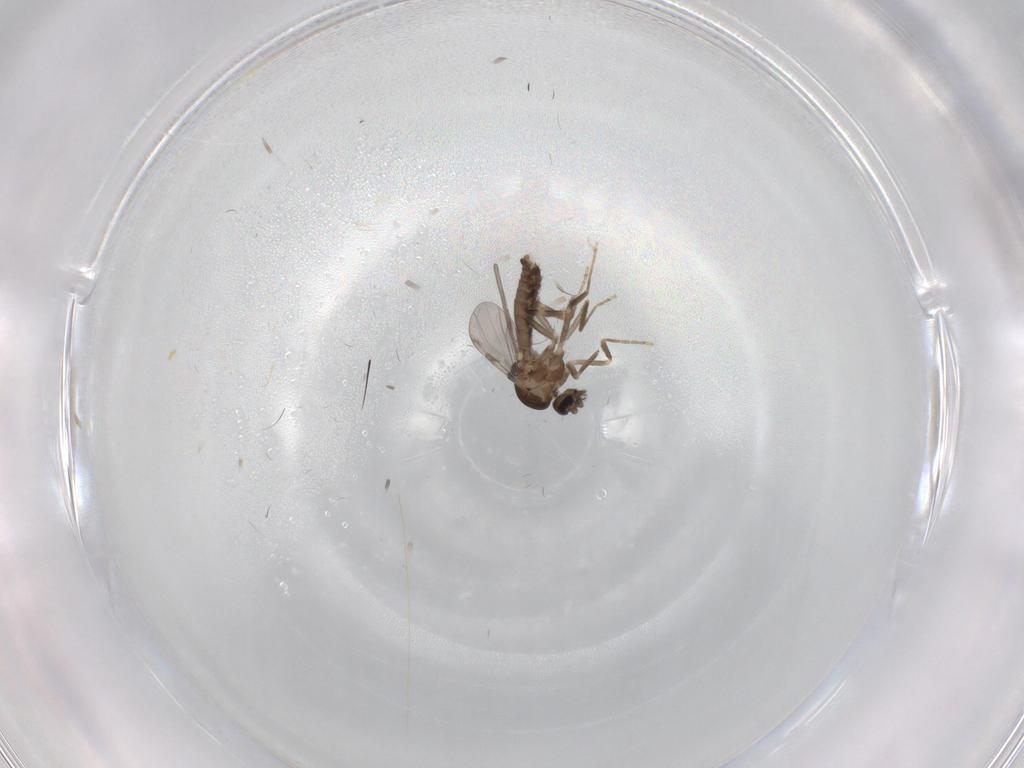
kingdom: Animalia
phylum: Arthropoda
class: Insecta
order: Diptera
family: Ceratopogonidae
